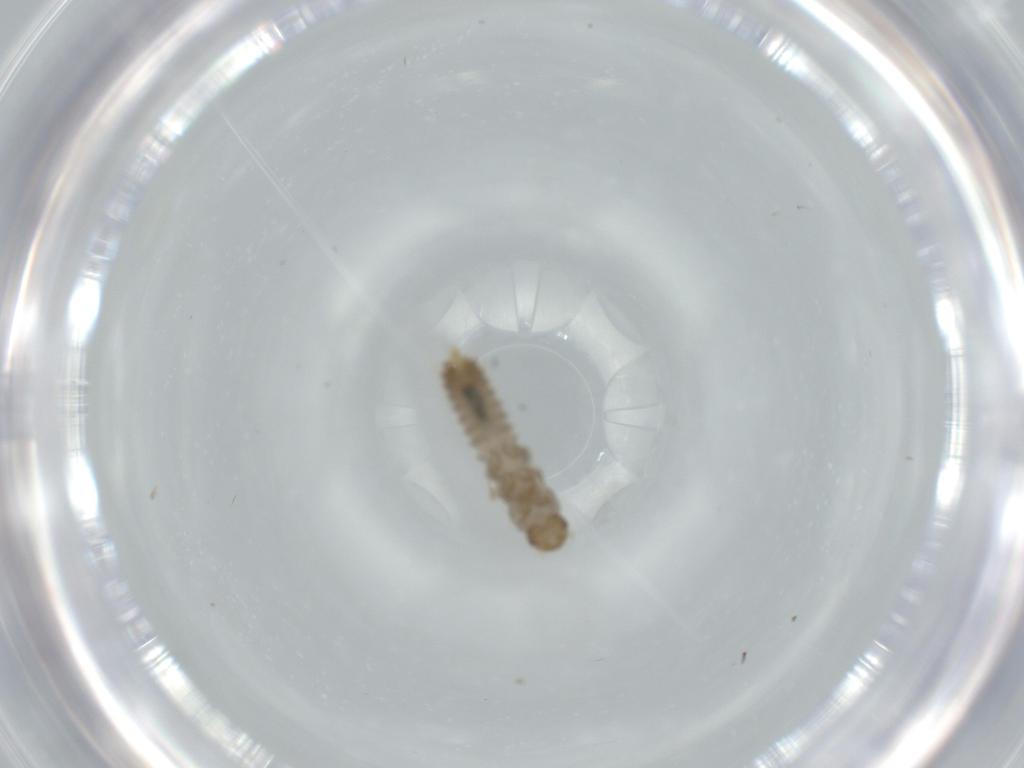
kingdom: Animalia
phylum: Arthropoda
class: Insecta
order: Coleoptera
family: Staphylinidae
